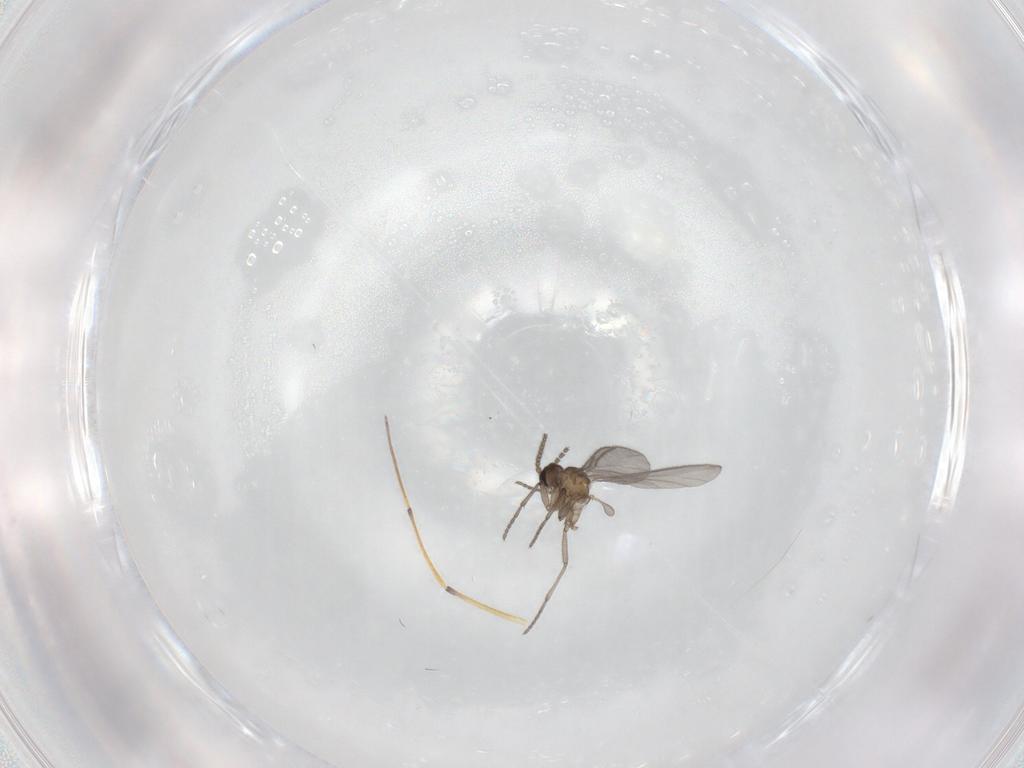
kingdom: Animalia
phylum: Arthropoda
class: Insecta
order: Diptera
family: Sciaridae
